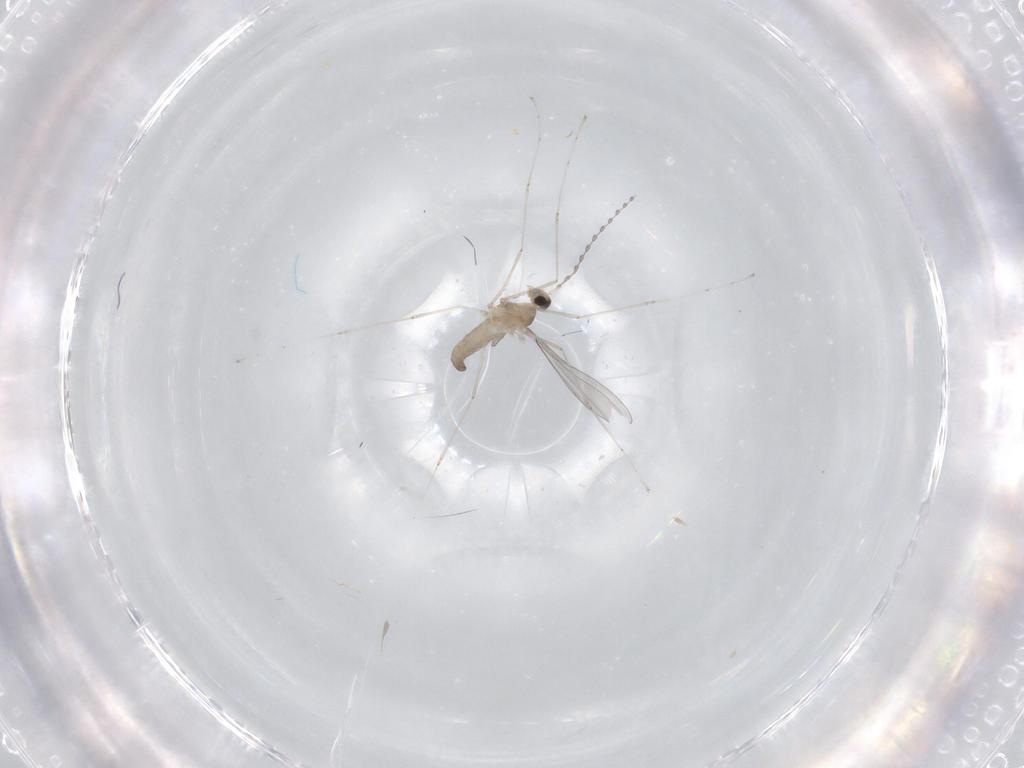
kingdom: Animalia
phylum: Arthropoda
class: Insecta
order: Diptera
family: Cecidomyiidae
